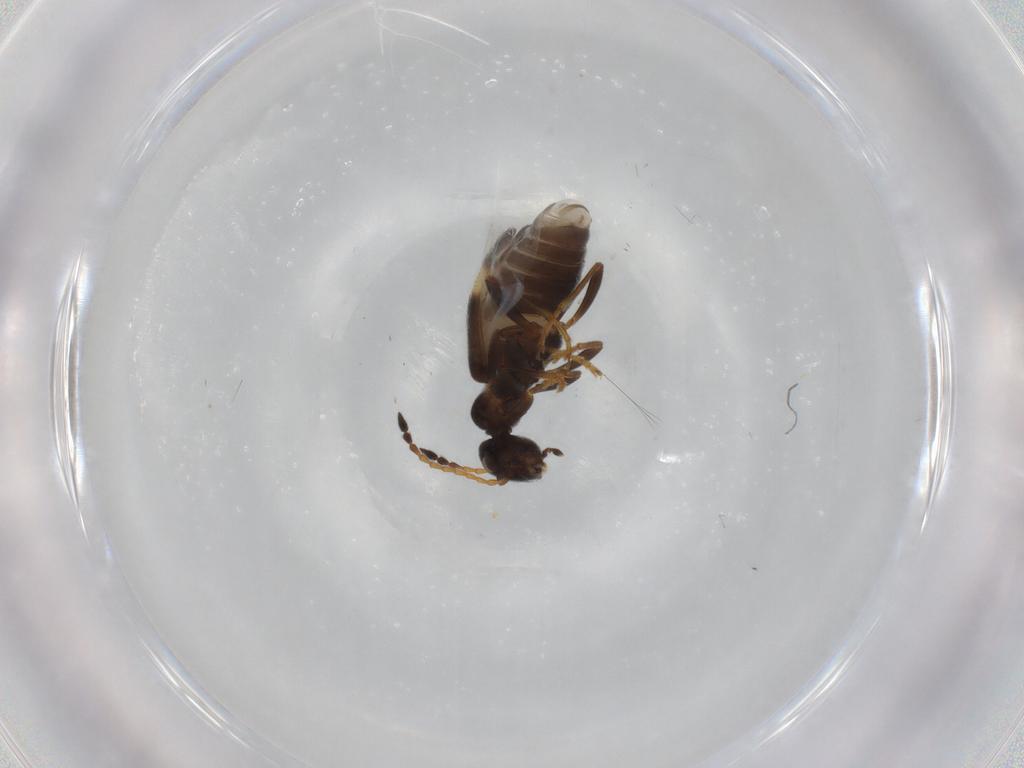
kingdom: Animalia
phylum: Arthropoda
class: Insecta
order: Coleoptera
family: Anthicidae
